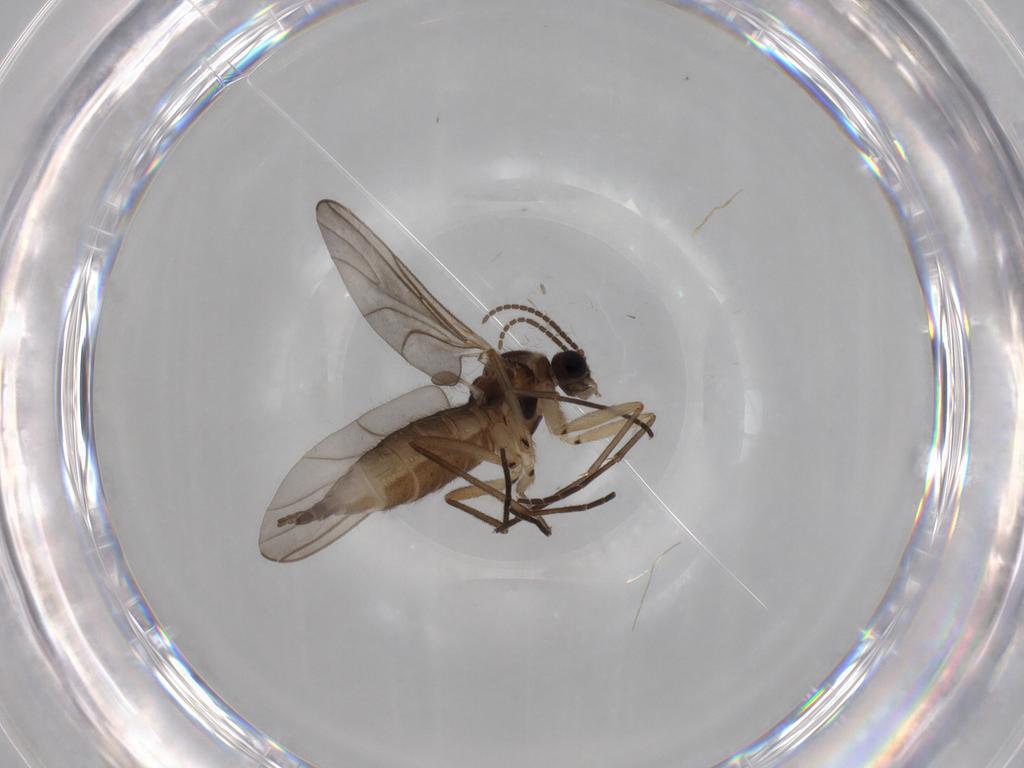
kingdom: Animalia
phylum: Arthropoda
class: Insecta
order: Diptera
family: Sciaridae
